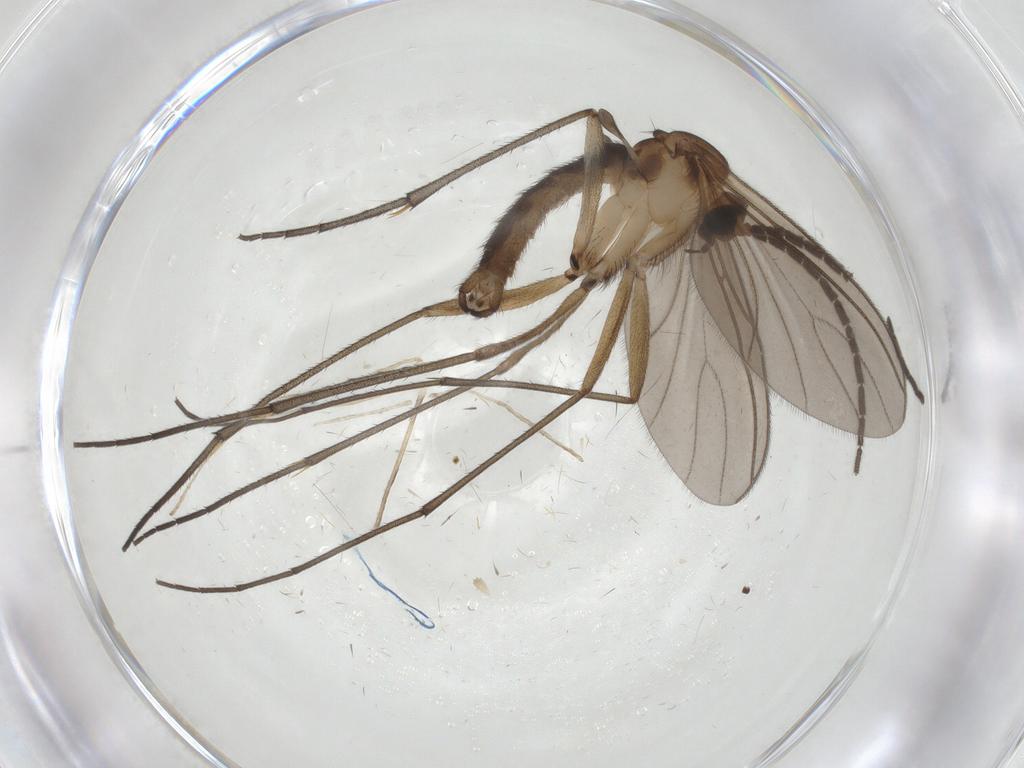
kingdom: Animalia
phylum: Arthropoda
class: Insecta
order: Diptera
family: Limoniidae
